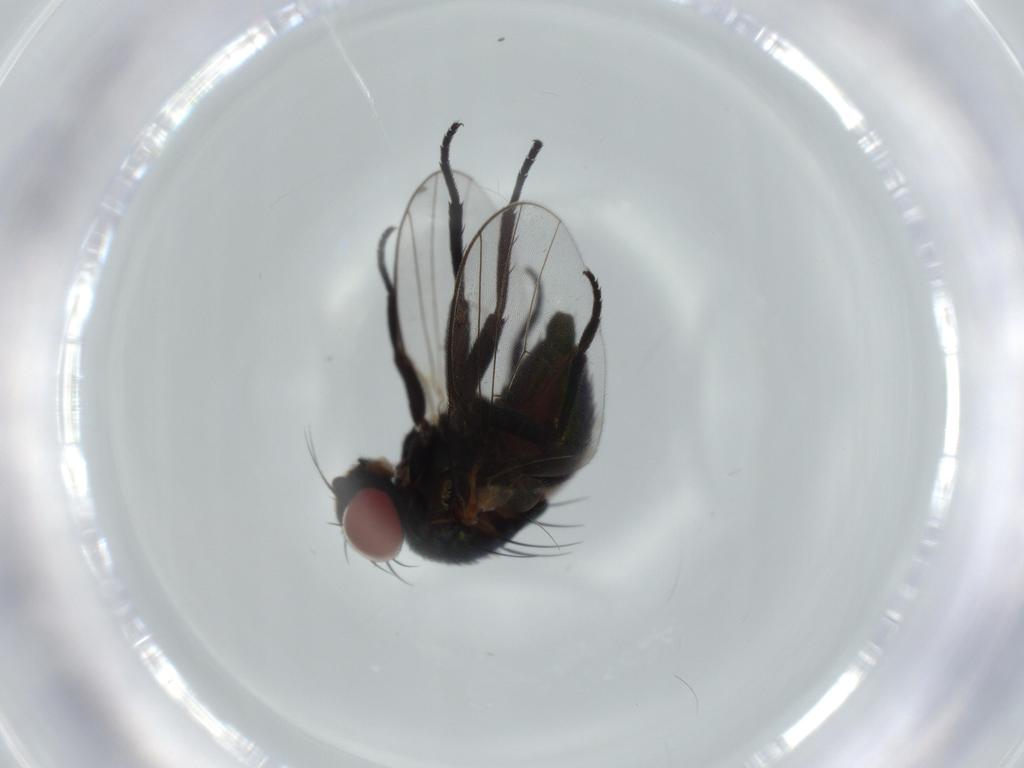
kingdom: Animalia
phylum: Arthropoda
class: Insecta
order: Diptera
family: Agromyzidae
